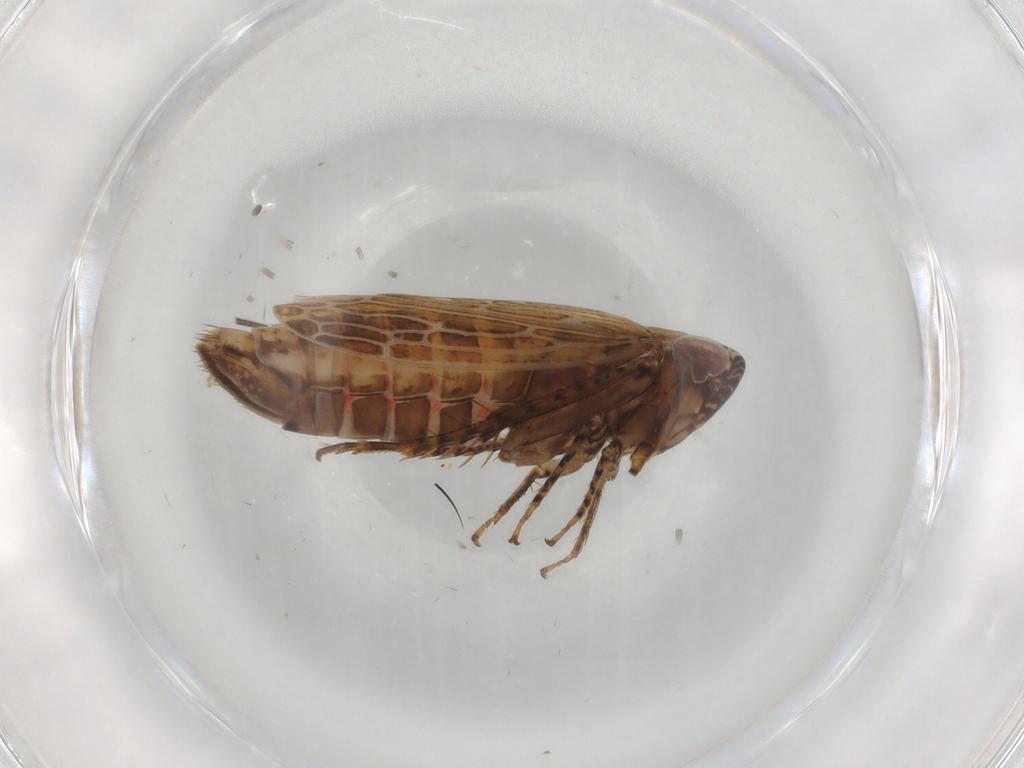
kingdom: Animalia
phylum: Arthropoda
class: Insecta
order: Hemiptera
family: Cicadellidae
